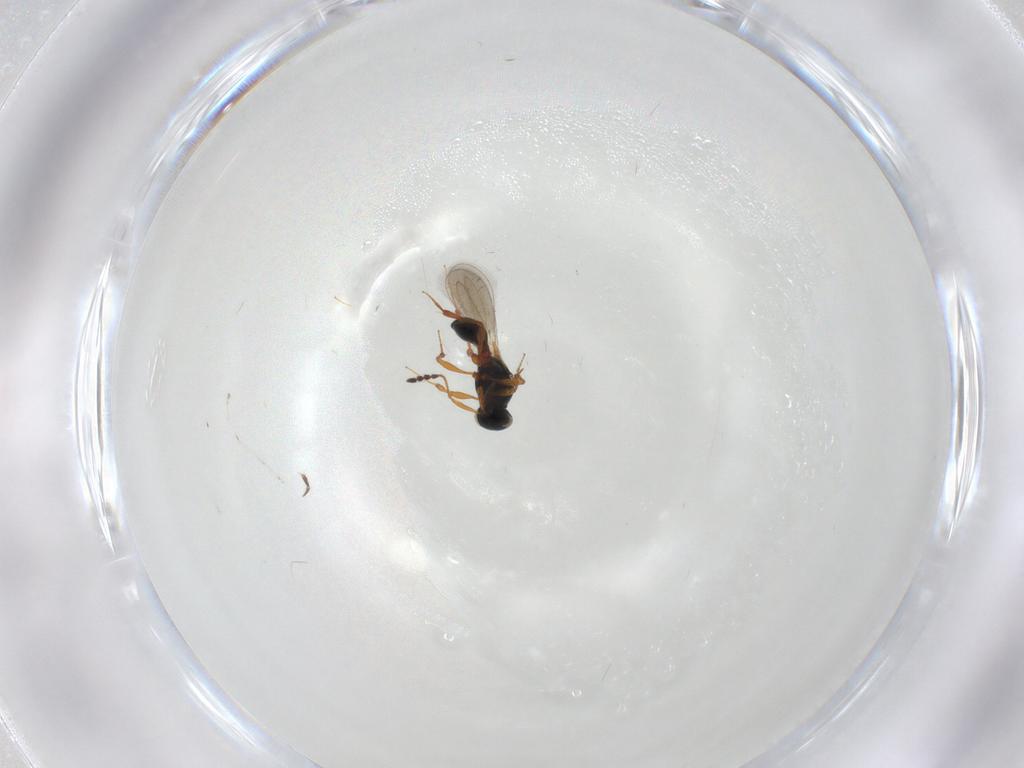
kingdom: Animalia
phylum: Arthropoda
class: Insecta
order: Hymenoptera
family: Platygastridae
